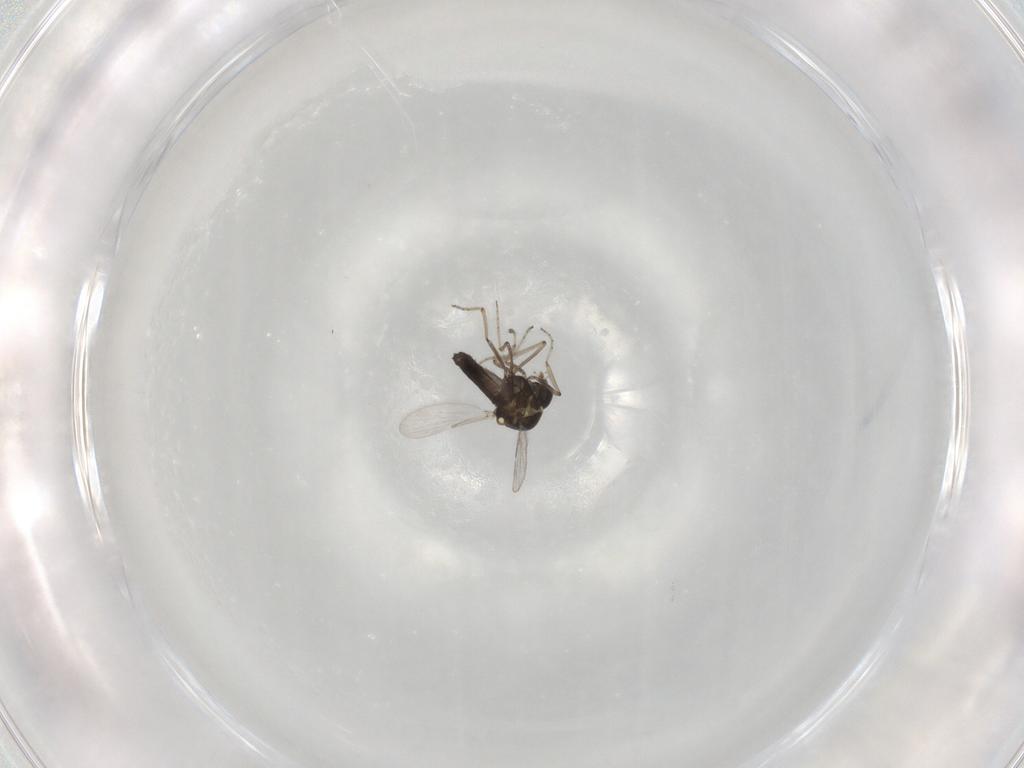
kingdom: Animalia
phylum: Arthropoda
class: Insecta
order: Diptera
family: Ceratopogonidae
